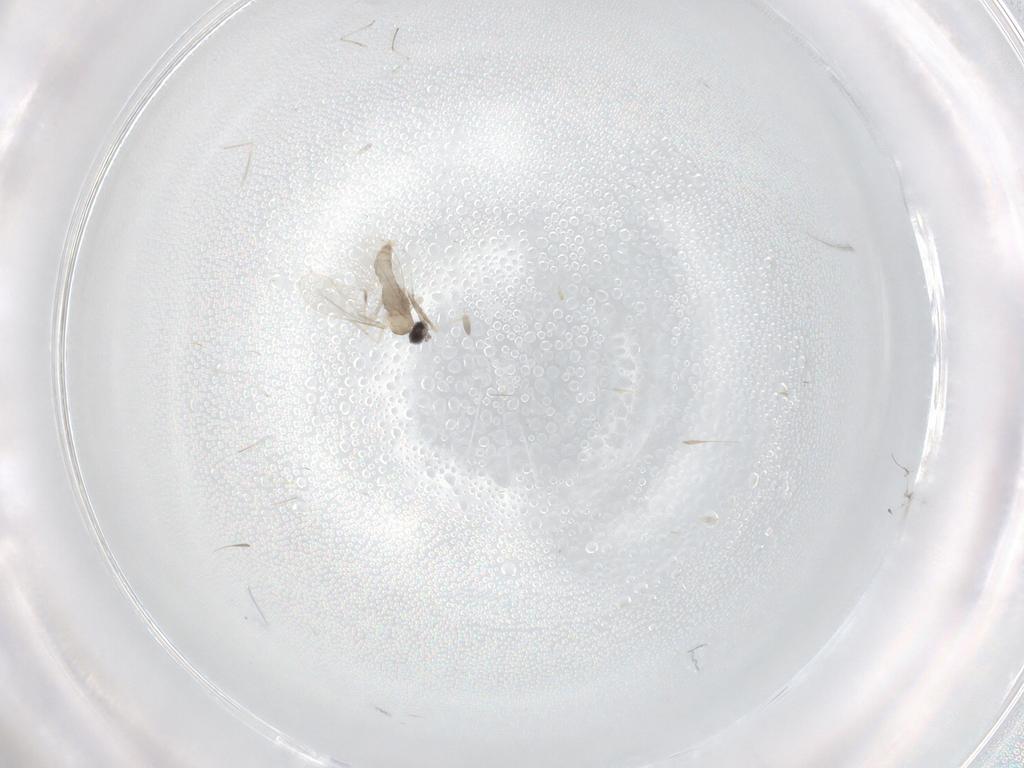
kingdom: Animalia
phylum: Arthropoda
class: Insecta
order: Diptera
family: Cecidomyiidae
